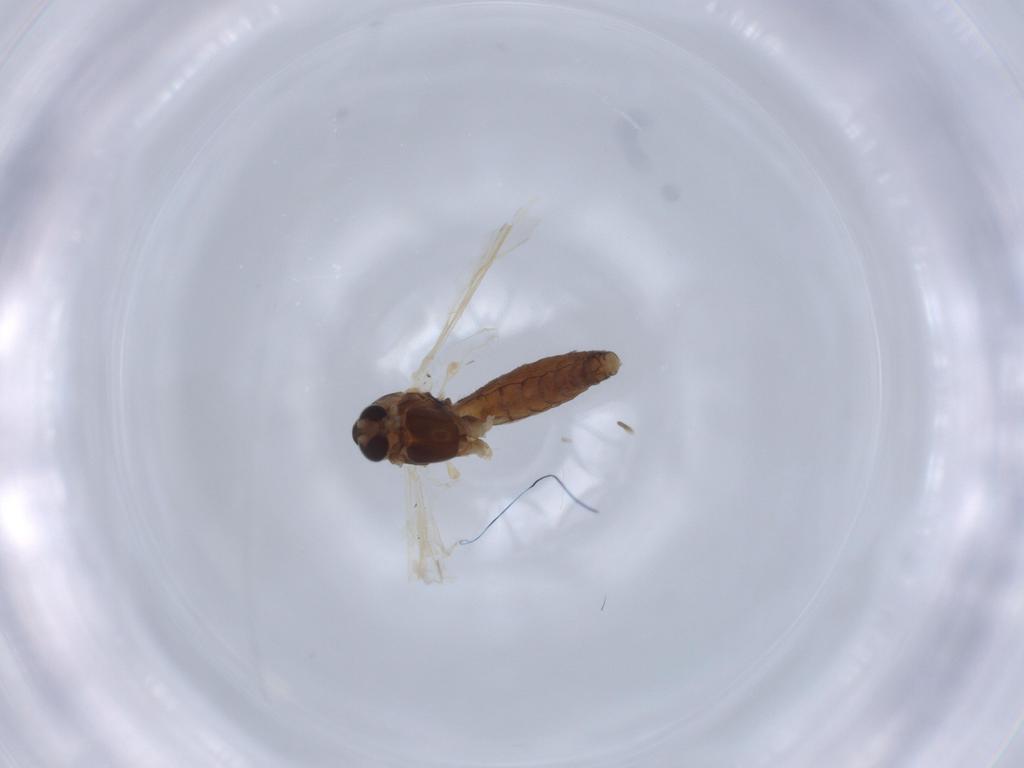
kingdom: Animalia
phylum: Arthropoda
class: Insecta
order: Diptera
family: Chironomidae
